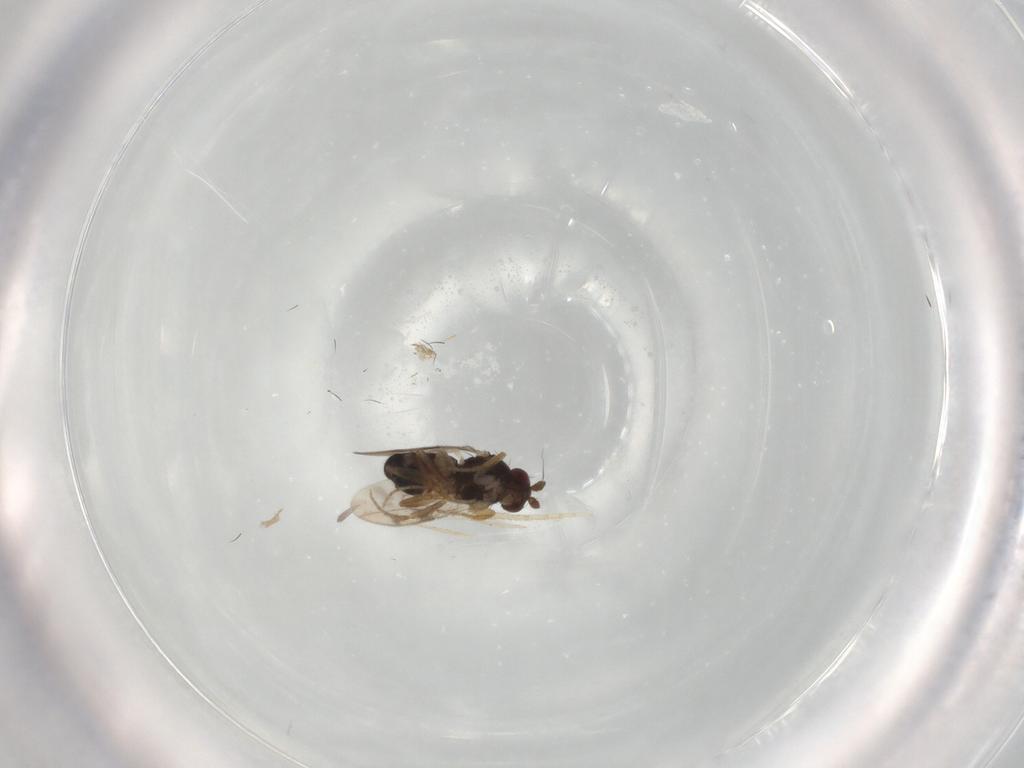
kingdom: Animalia
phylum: Arthropoda
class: Insecta
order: Diptera
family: Sphaeroceridae
